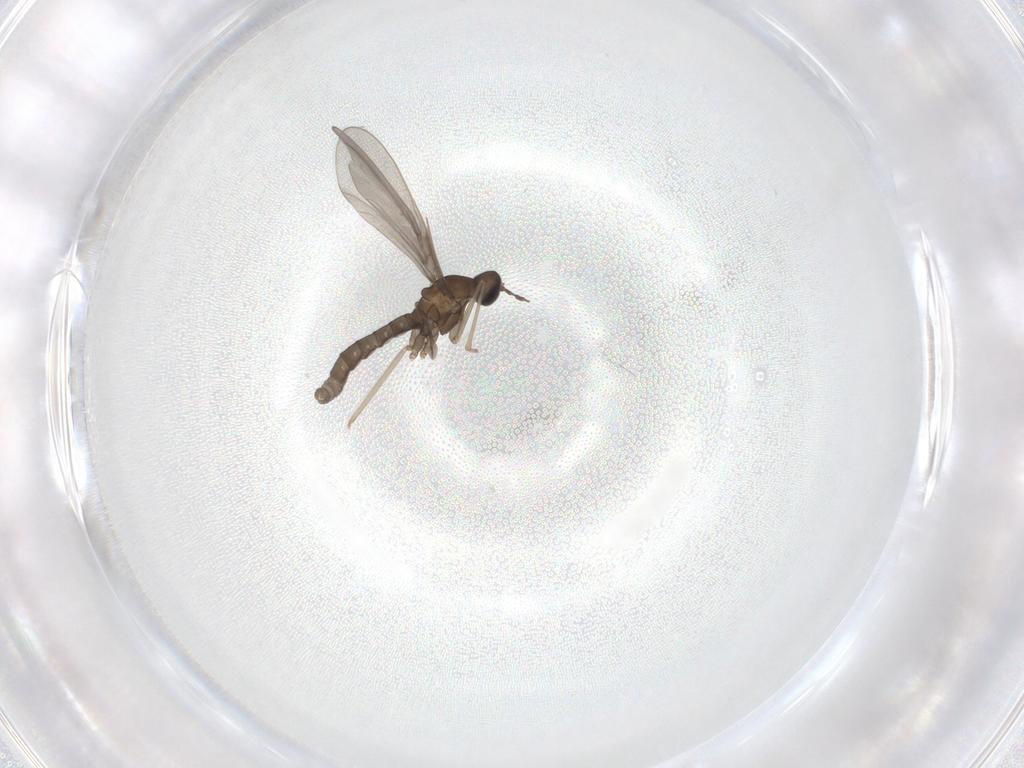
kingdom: Animalia
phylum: Arthropoda
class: Insecta
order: Diptera
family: Cecidomyiidae
